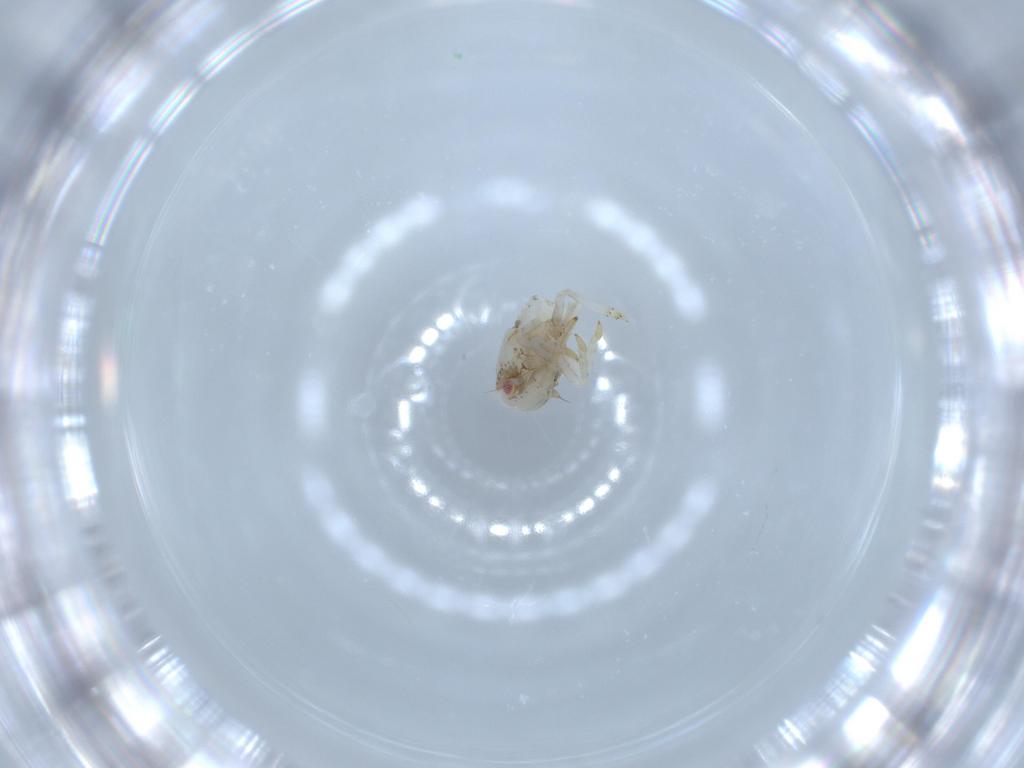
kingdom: Animalia
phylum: Arthropoda
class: Insecta
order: Hemiptera
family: Acanaloniidae
